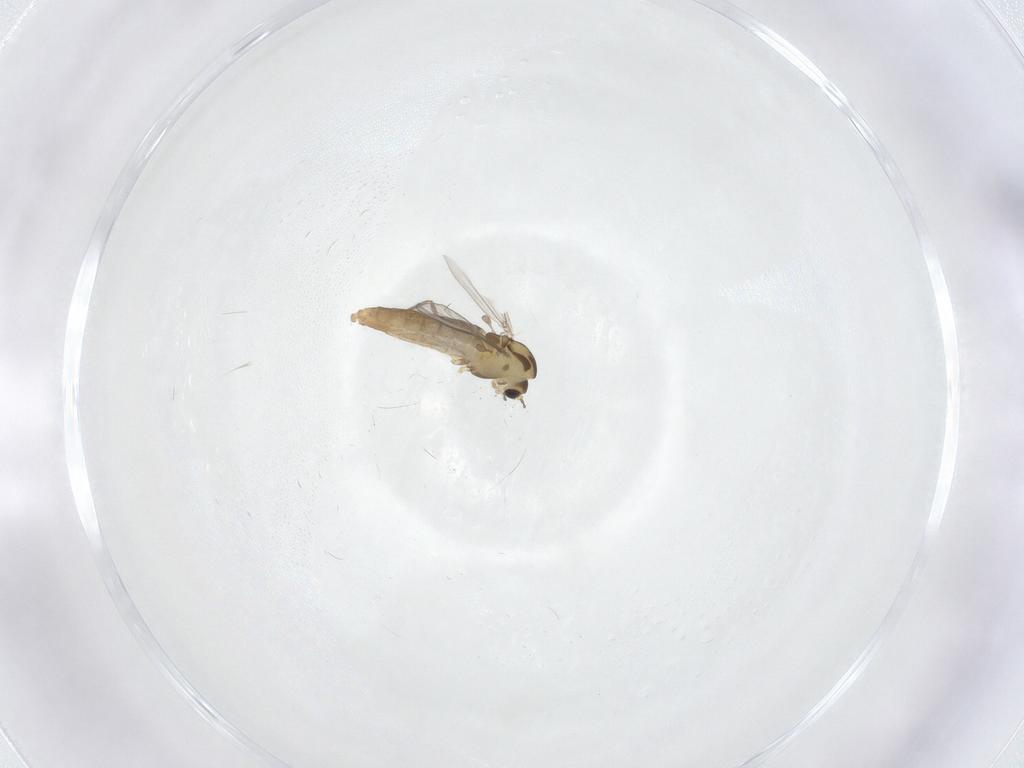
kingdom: Animalia
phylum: Arthropoda
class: Insecta
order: Diptera
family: Chironomidae
